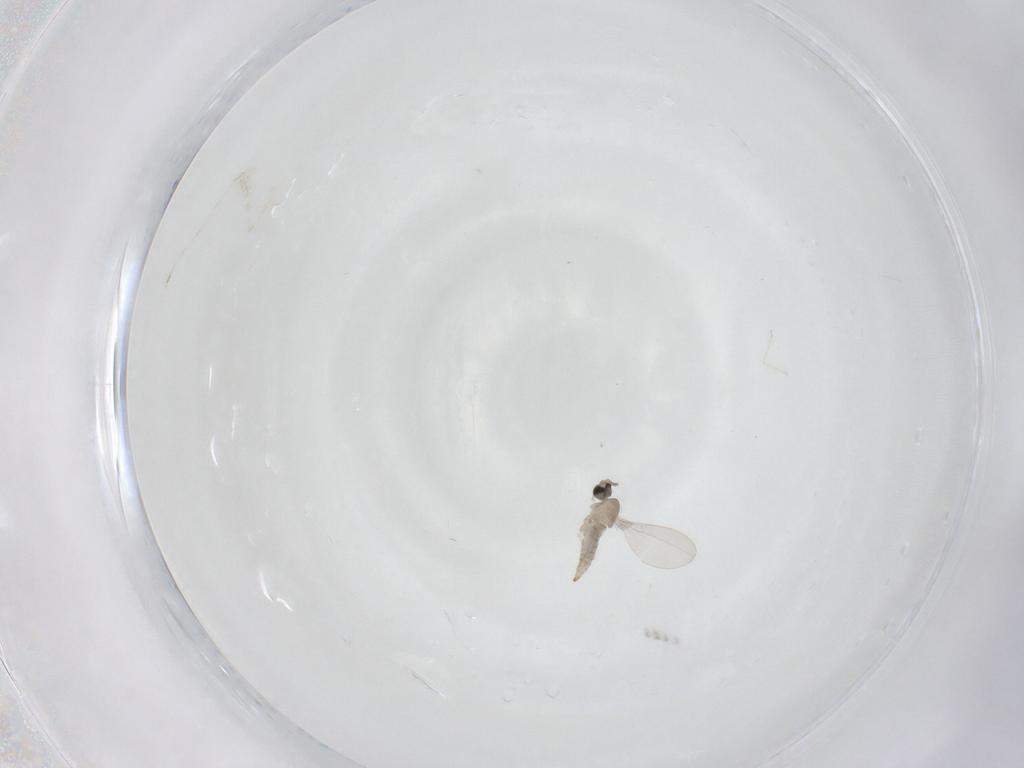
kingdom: Animalia
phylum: Arthropoda
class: Insecta
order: Diptera
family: Cecidomyiidae
